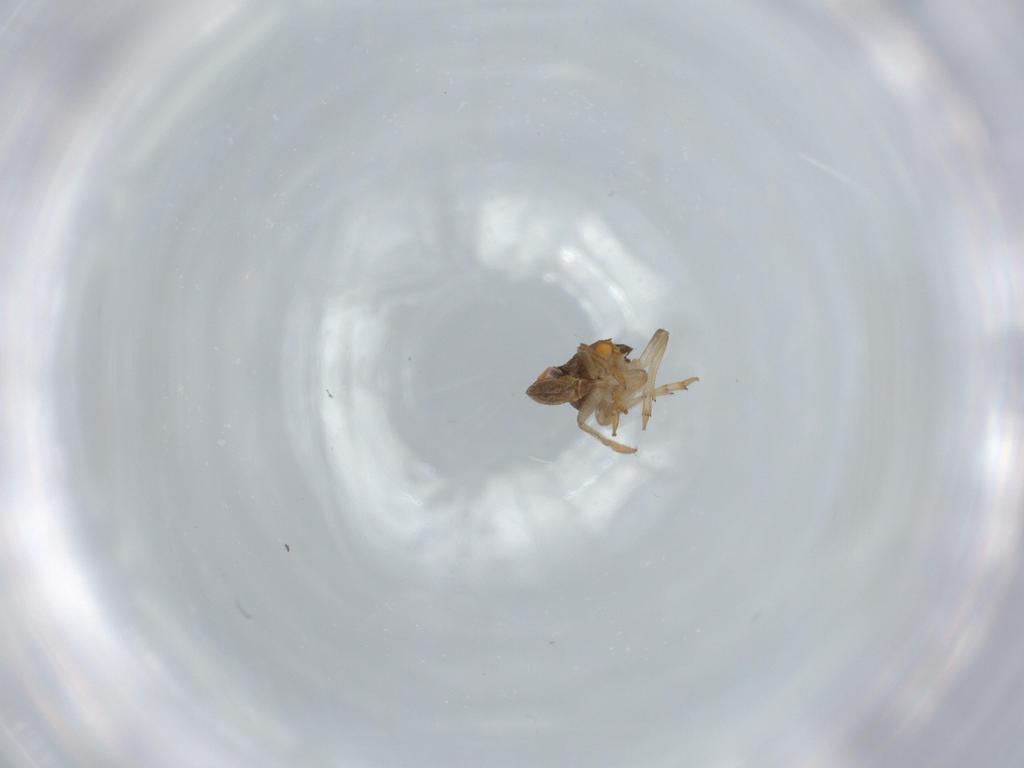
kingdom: Animalia
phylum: Arthropoda
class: Insecta
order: Hemiptera
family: Issidae
